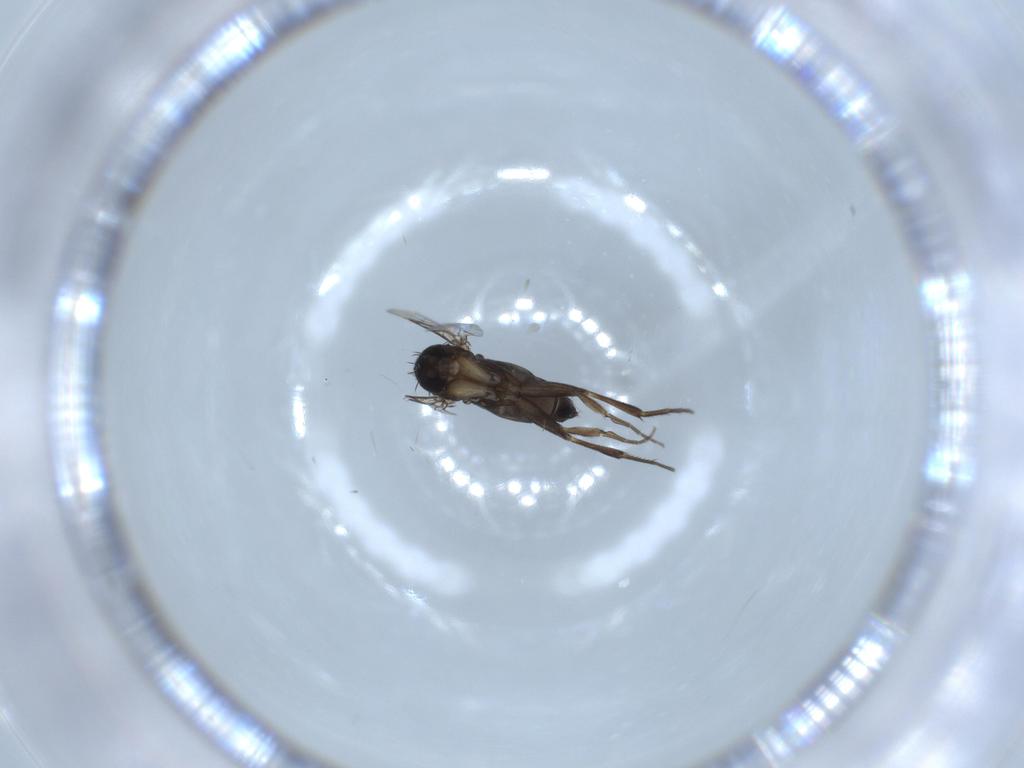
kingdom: Animalia
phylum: Arthropoda
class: Insecta
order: Diptera
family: Phoridae
